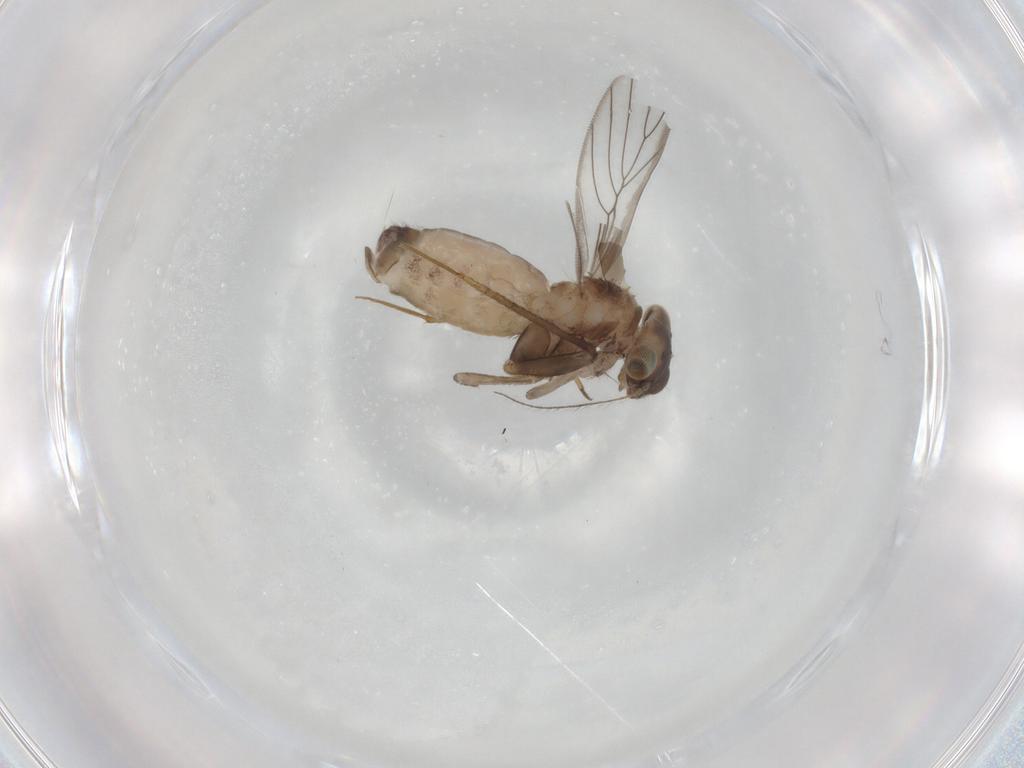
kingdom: Animalia
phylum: Arthropoda
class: Insecta
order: Psocodea
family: Lepidopsocidae
